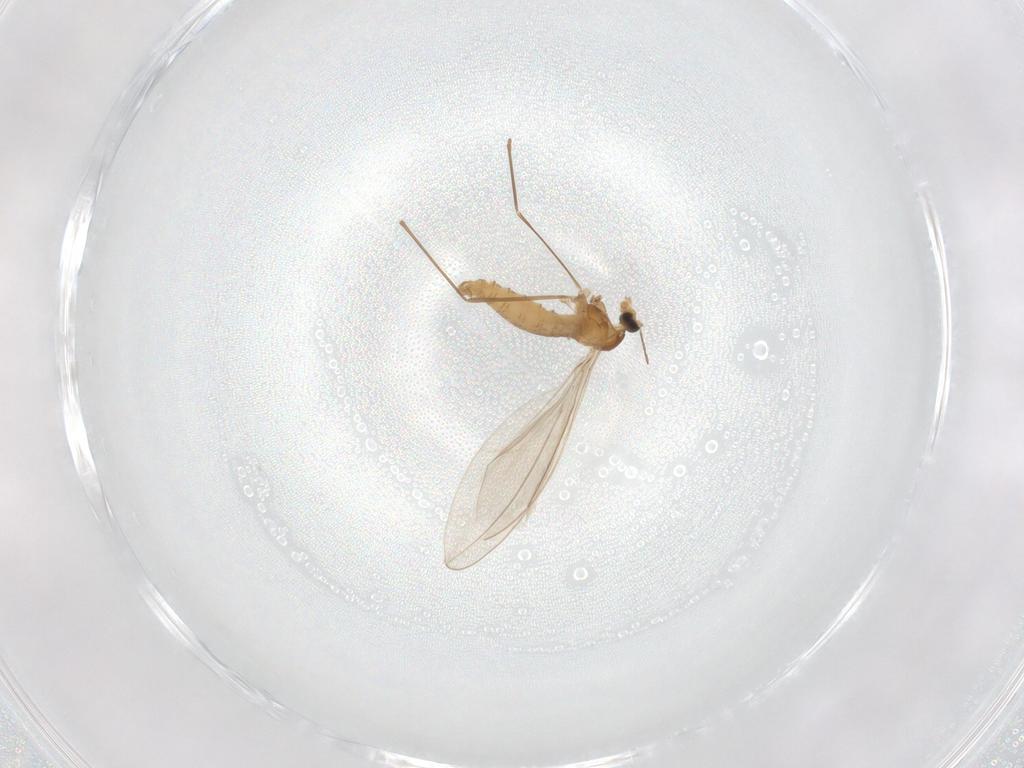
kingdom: Animalia
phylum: Arthropoda
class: Insecta
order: Diptera
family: Cecidomyiidae
